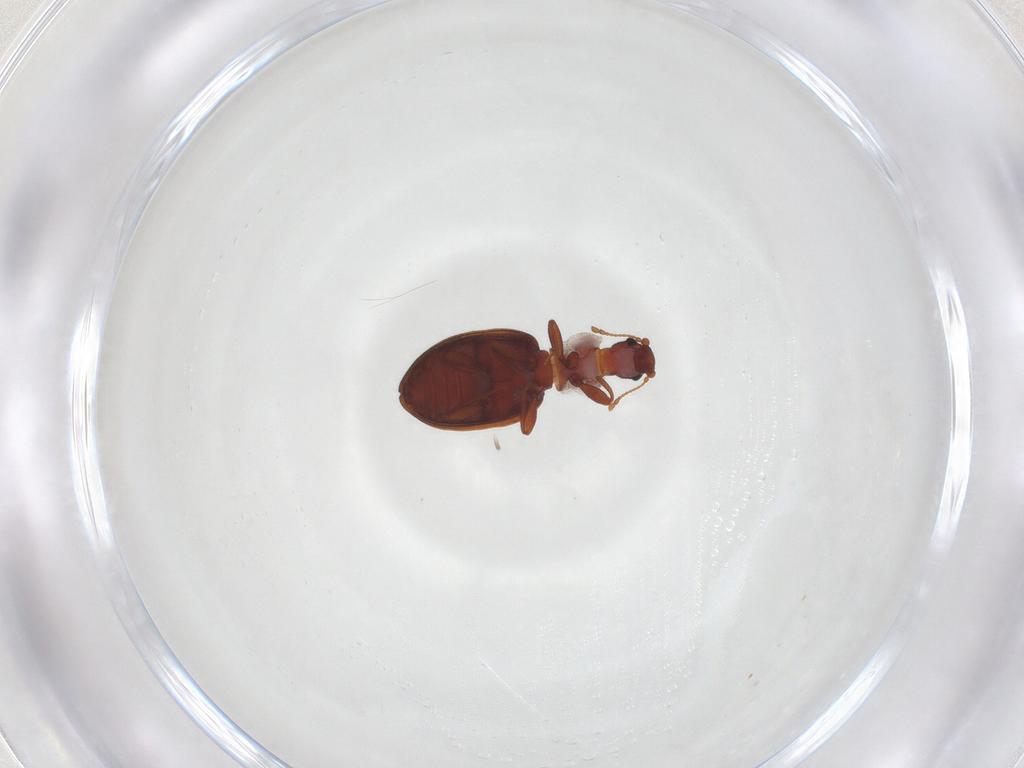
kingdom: Animalia
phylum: Arthropoda
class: Insecta
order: Coleoptera
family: Latridiidae
